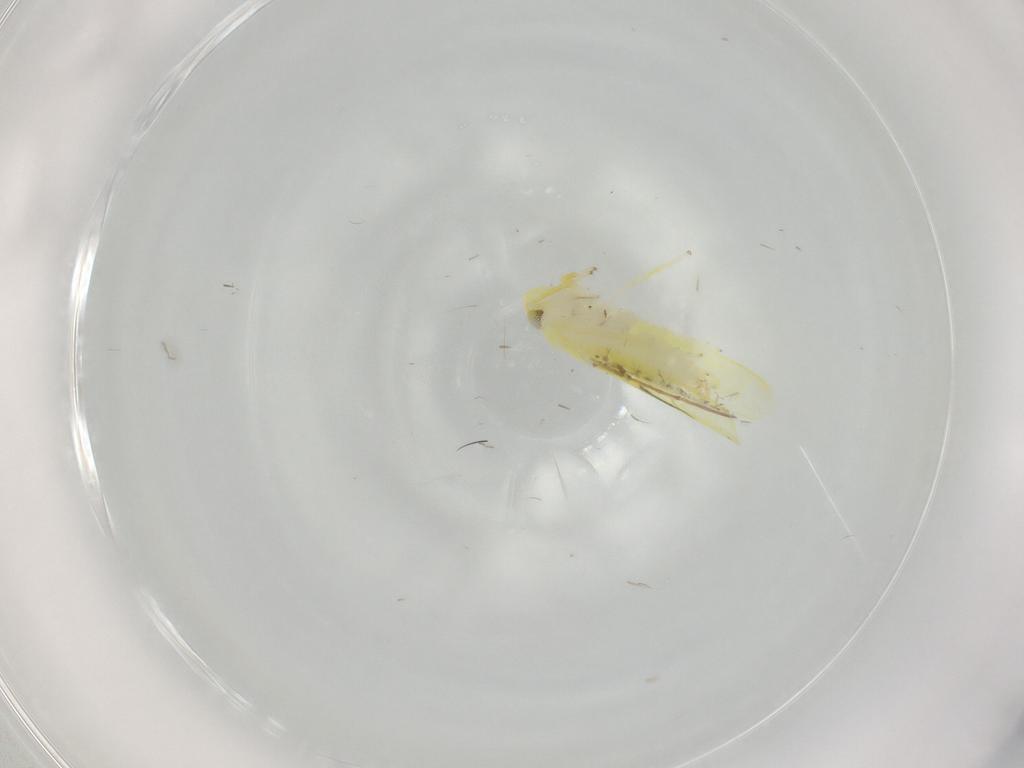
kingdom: Animalia
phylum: Arthropoda
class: Insecta
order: Hemiptera
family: Cicadellidae
